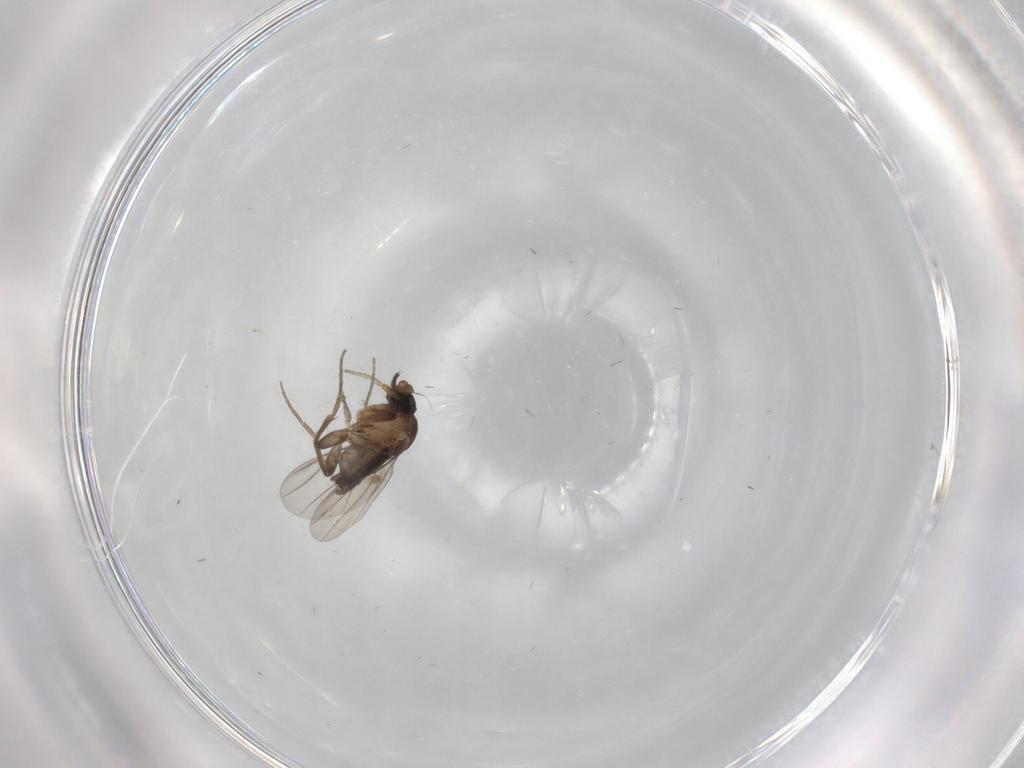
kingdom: Animalia
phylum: Arthropoda
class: Insecta
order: Diptera
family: Phoridae
